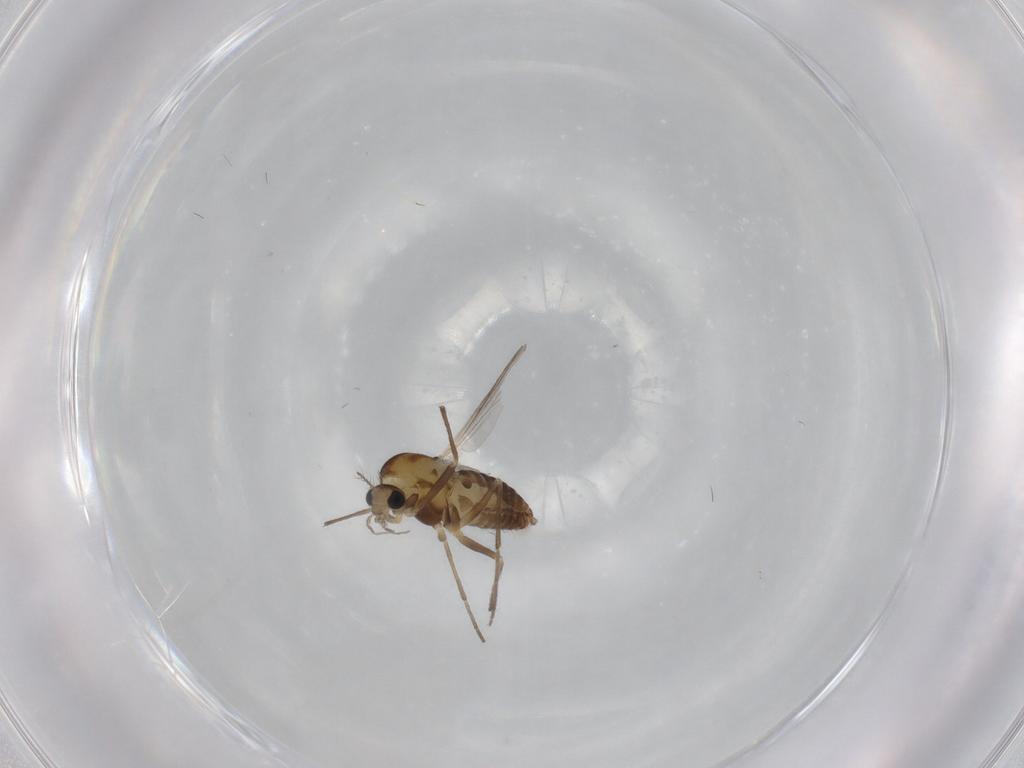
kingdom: Animalia
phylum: Arthropoda
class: Insecta
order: Diptera
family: Chironomidae
